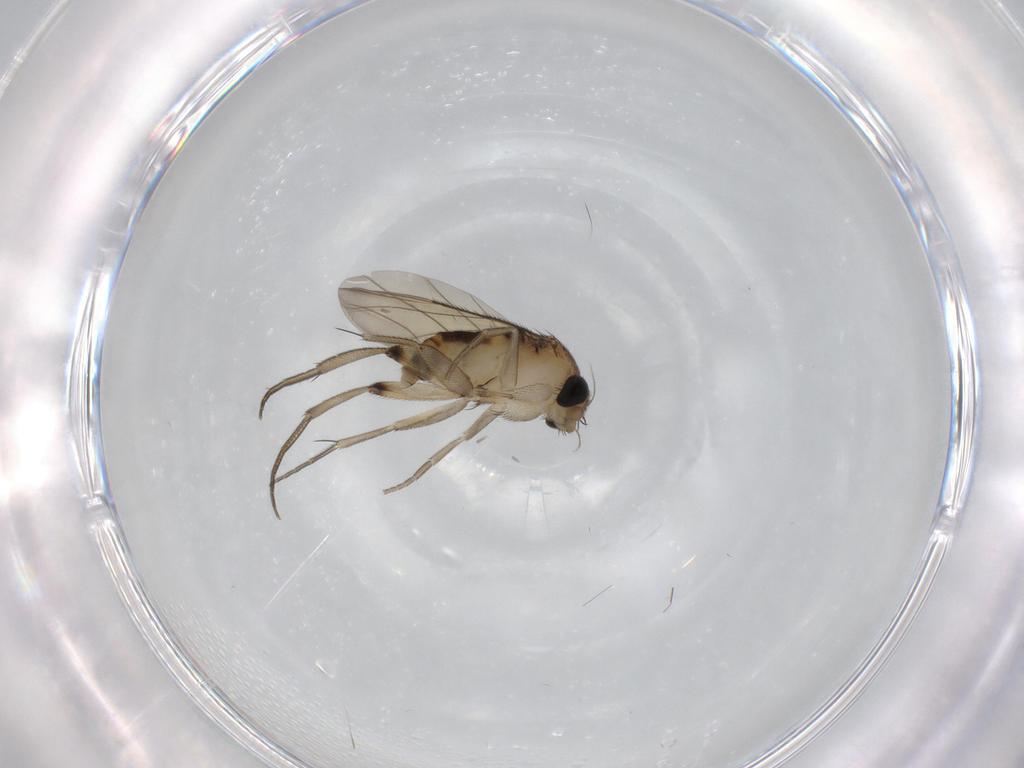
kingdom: Animalia
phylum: Arthropoda
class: Insecta
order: Diptera
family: Phoridae
